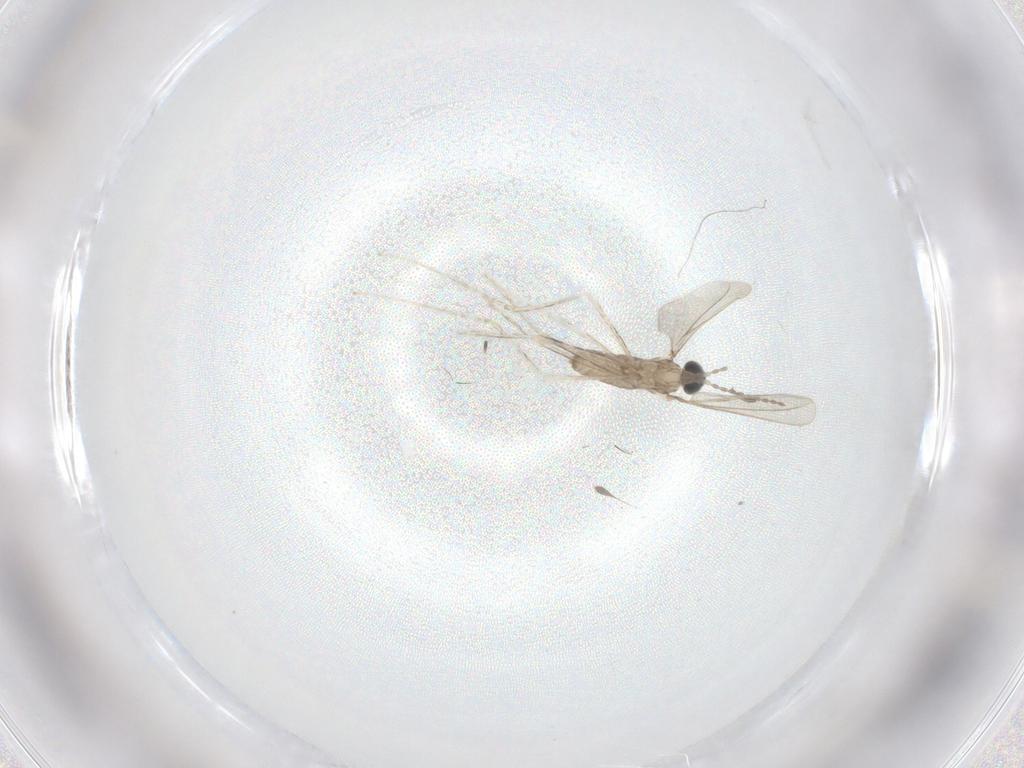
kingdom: Animalia
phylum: Arthropoda
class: Insecta
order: Diptera
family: Cecidomyiidae
